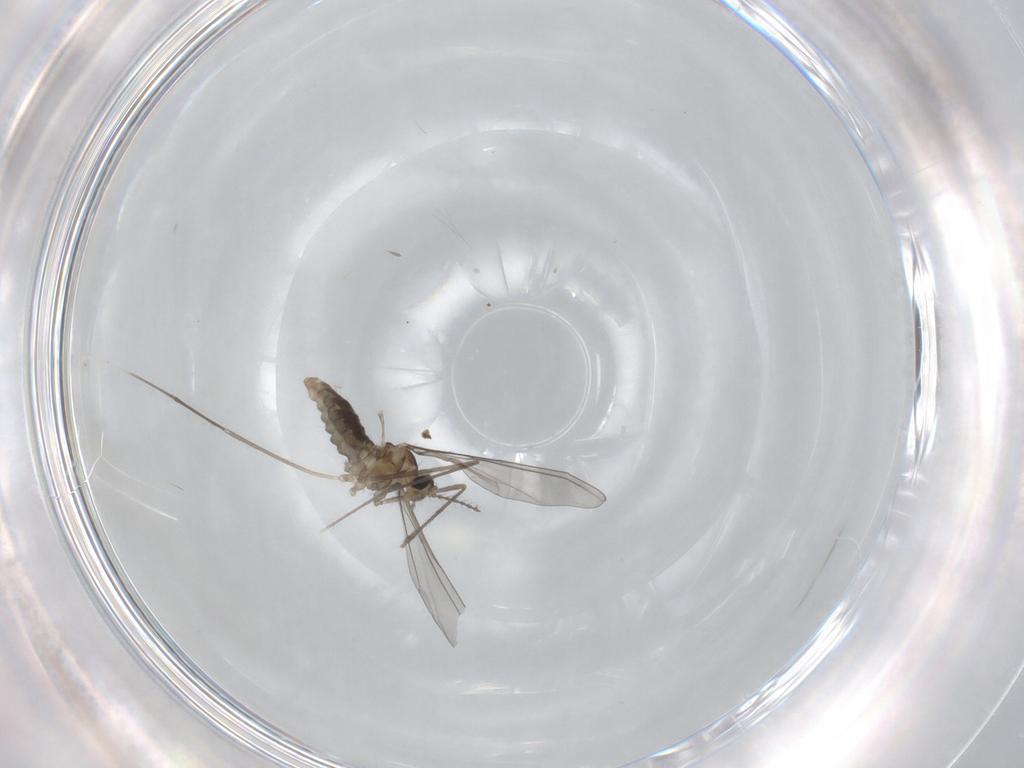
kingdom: Animalia
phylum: Arthropoda
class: Insecta
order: Diptera
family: Cecidomyiidae
